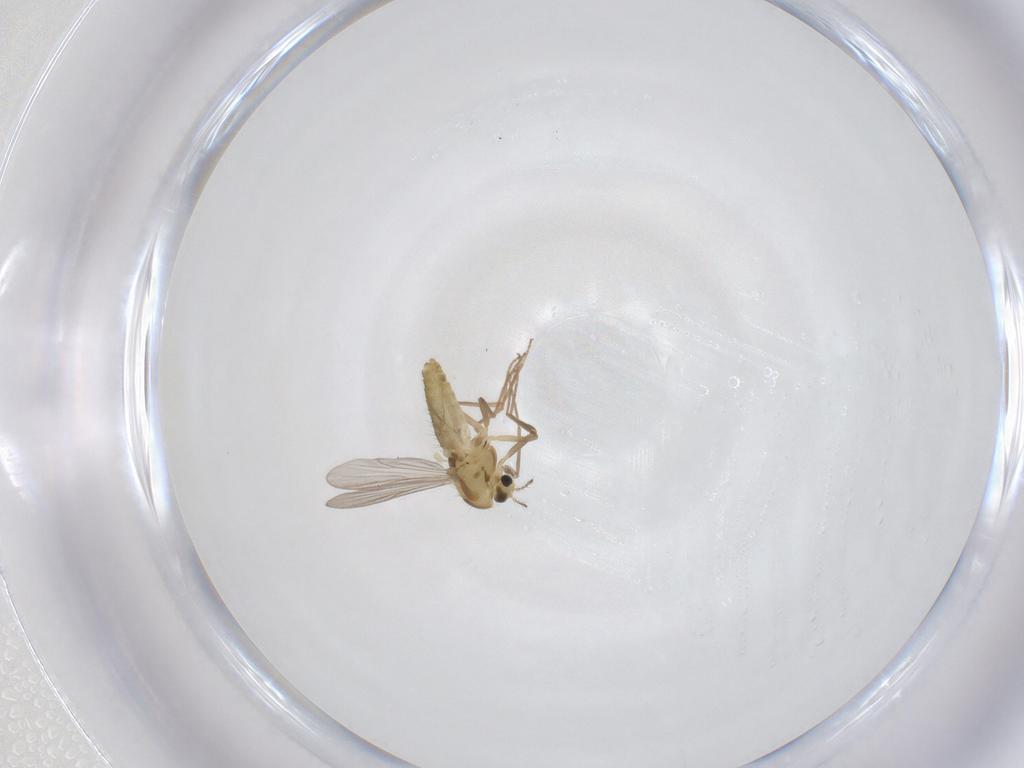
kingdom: Animalia
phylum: Arthropoda
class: Insecta
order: Diptera
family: Chironomidae
